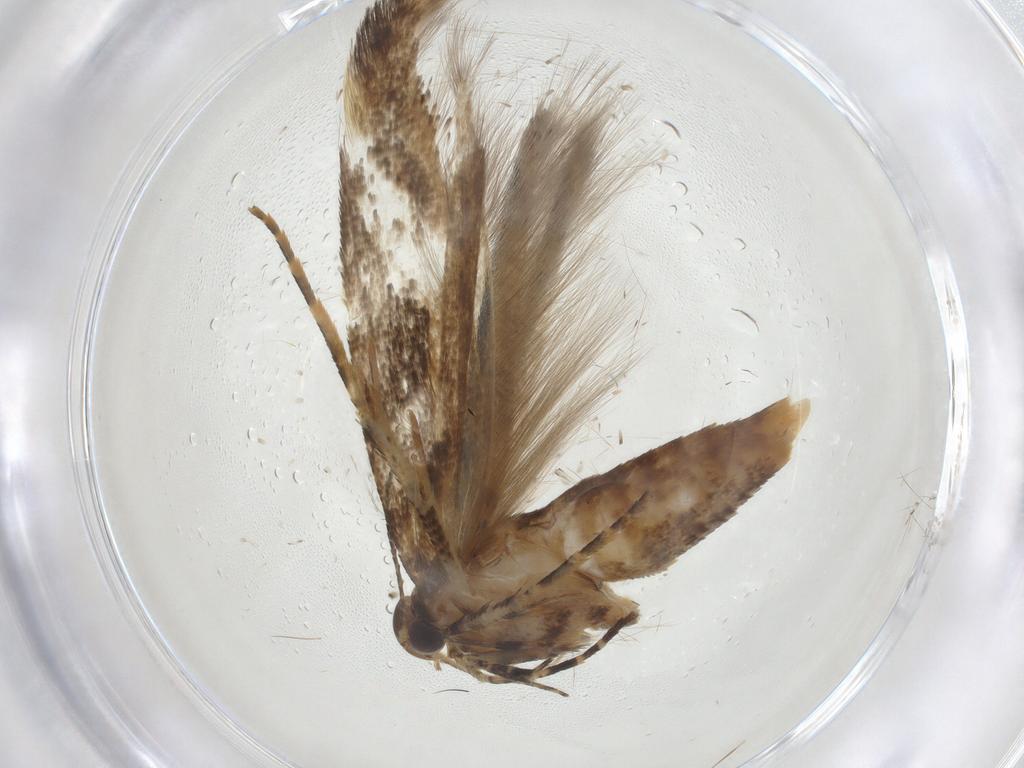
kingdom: Animalia
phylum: Arthropoda
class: Insecta
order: Lepidoptera
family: Gelechiidae
